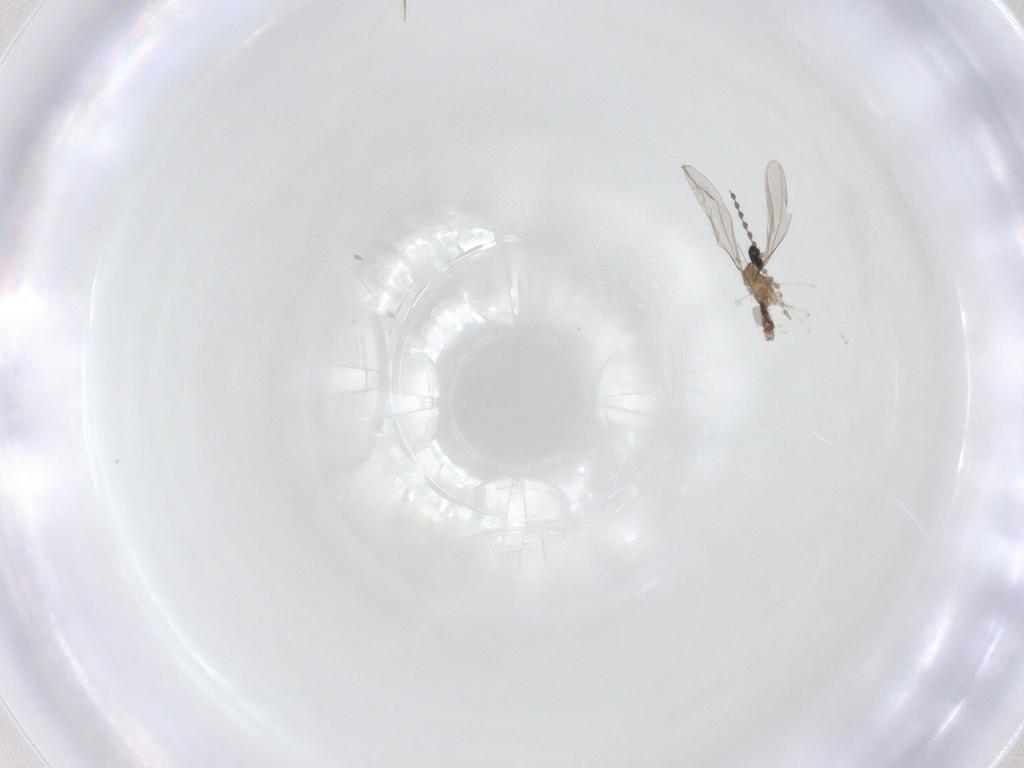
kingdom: Animalia
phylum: Arthropoda
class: Insecta
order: Diptera
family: Cecidomyiidae
